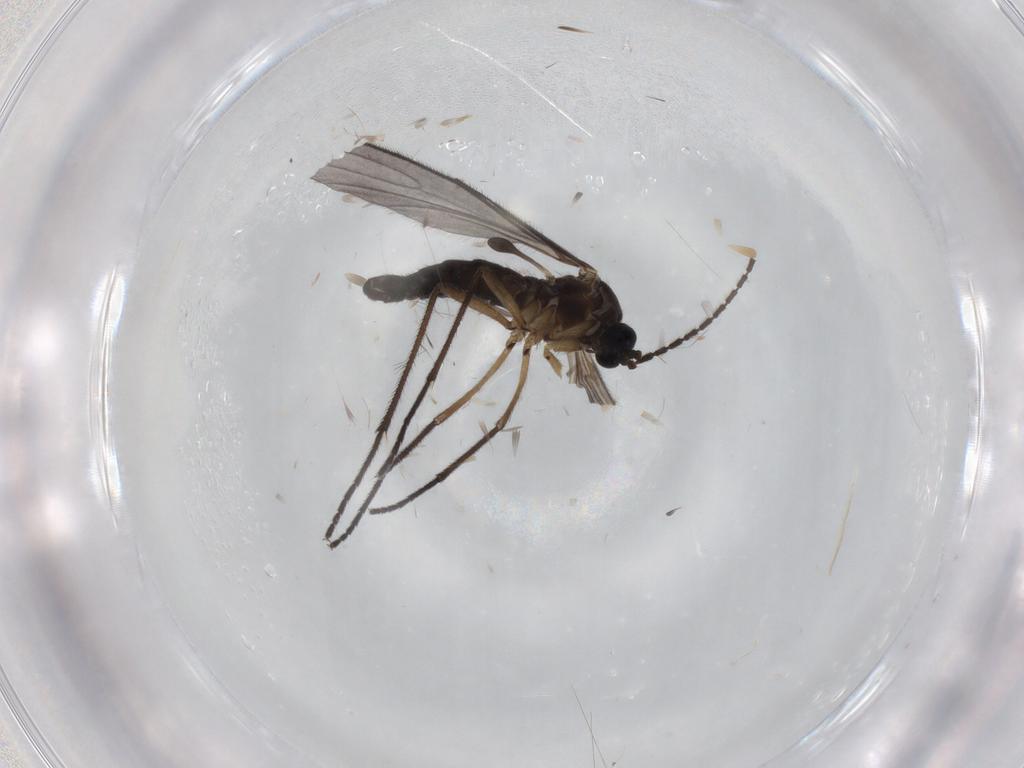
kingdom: Animalia
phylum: Arthropoda
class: Insecta
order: Diptera
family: Sciaridae
